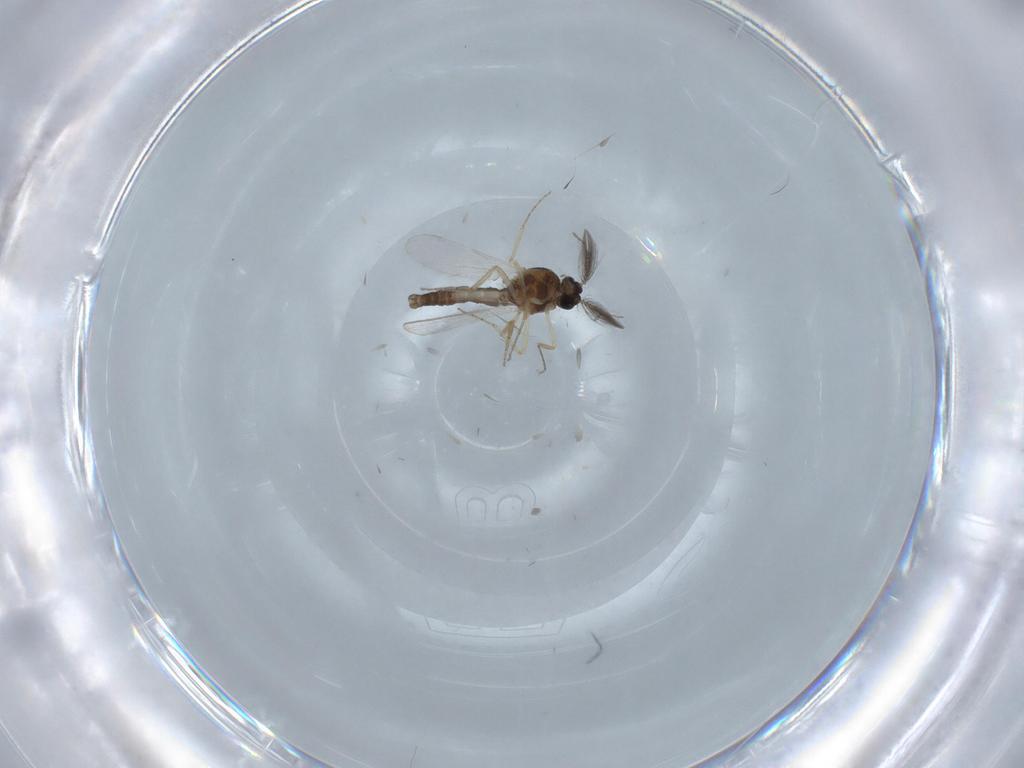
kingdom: Animalia
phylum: Arthropoda
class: Insecta
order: Diptera
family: Ceratopogonidae
